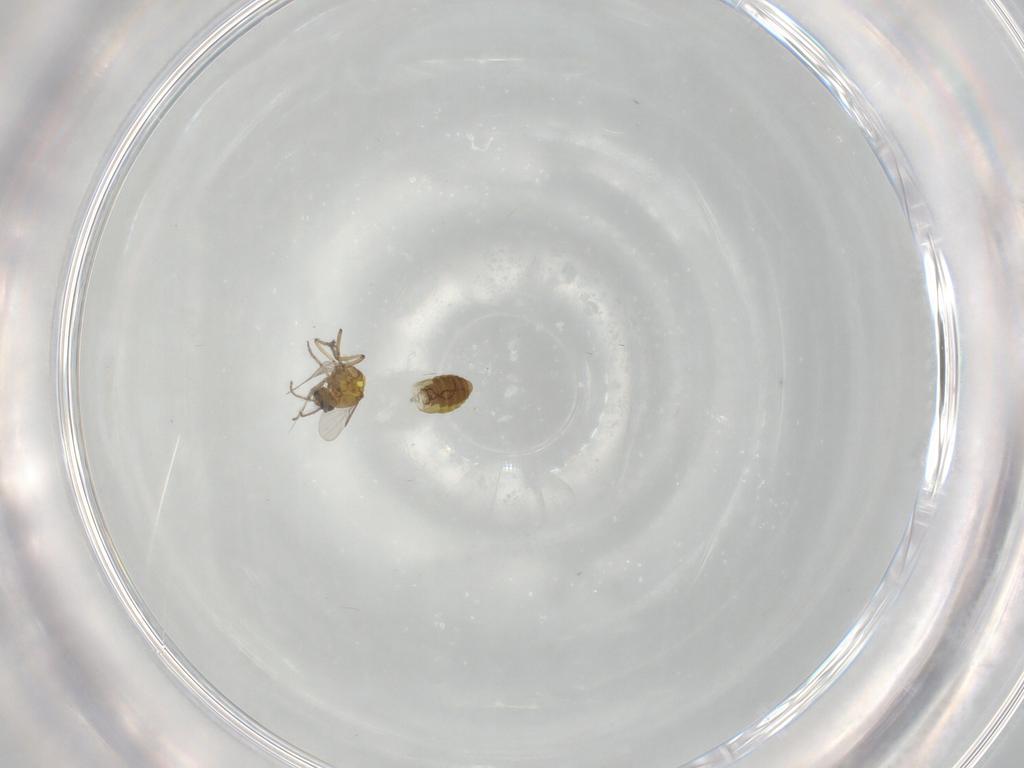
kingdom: Animalia
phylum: Arthropoda
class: Insecta
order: Diptera
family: Ceratopogonidae
